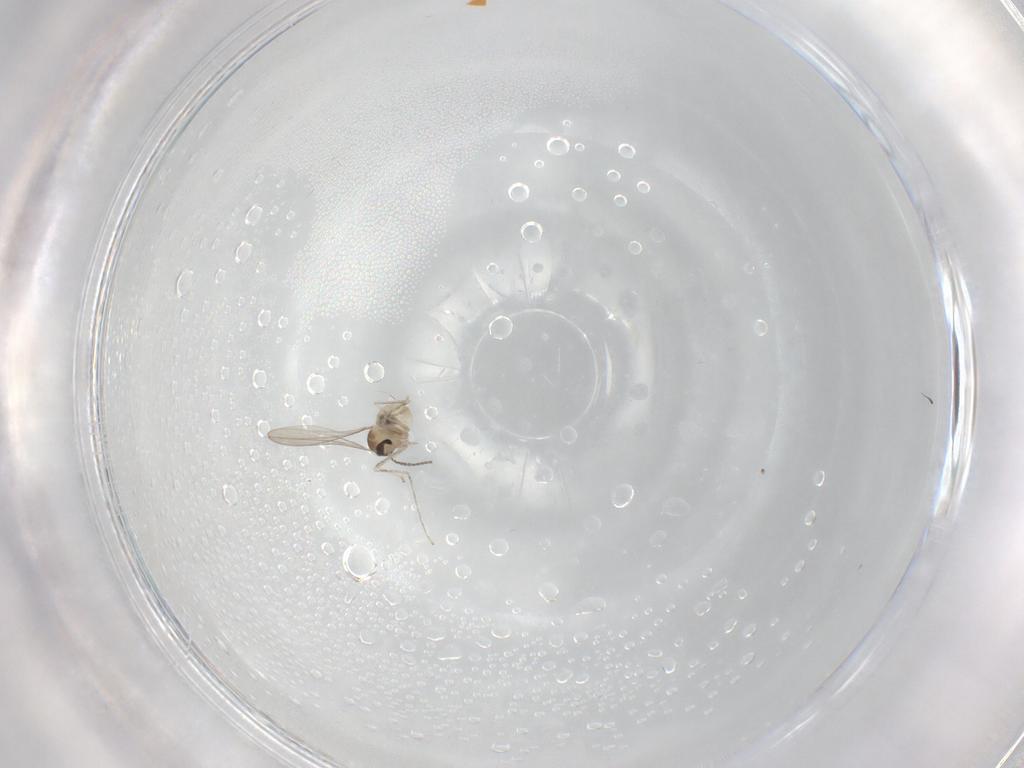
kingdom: Animalia
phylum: Arthropoda
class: Insecta
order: Diptera
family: Cecidomyiidae
